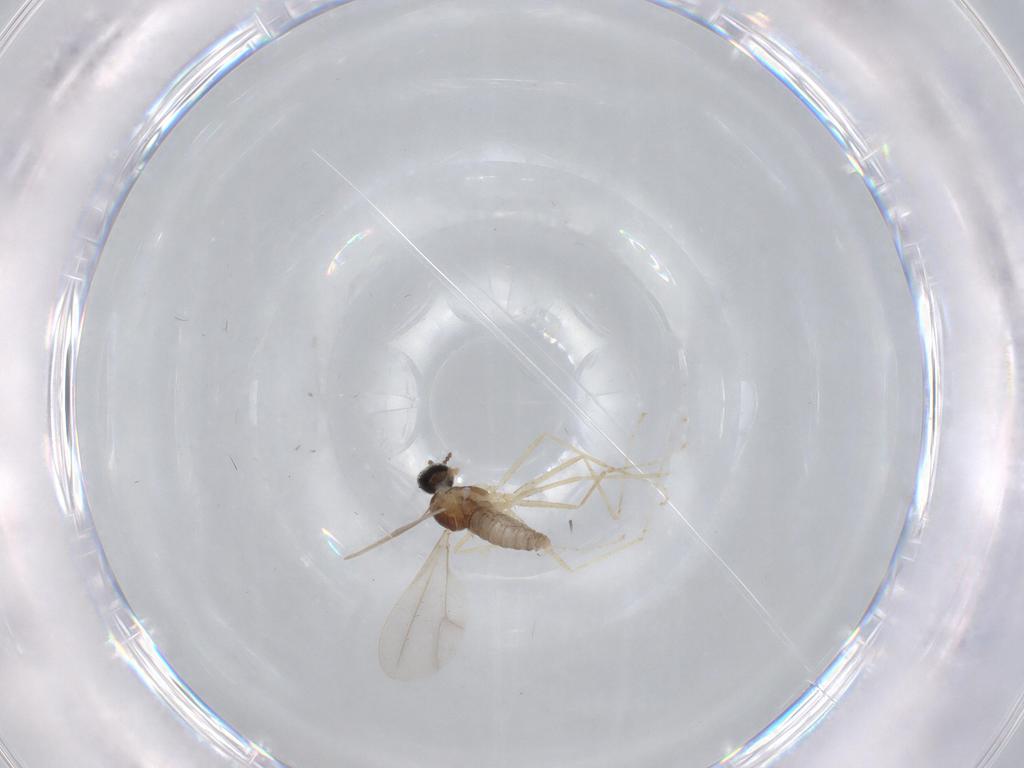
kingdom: Animalia
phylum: Arthropoda
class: Insecta
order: Diptera
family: Cecidomyiidae
